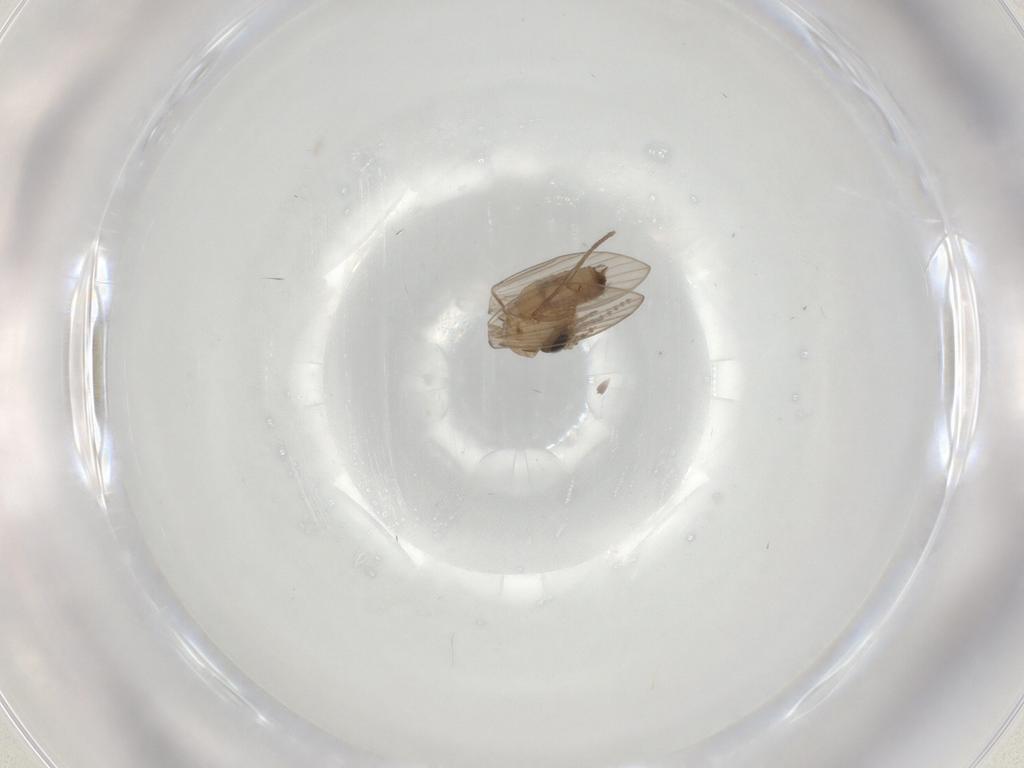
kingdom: Animalia
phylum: Arthropoda
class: Insecta
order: Diptera
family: Psychodidae
